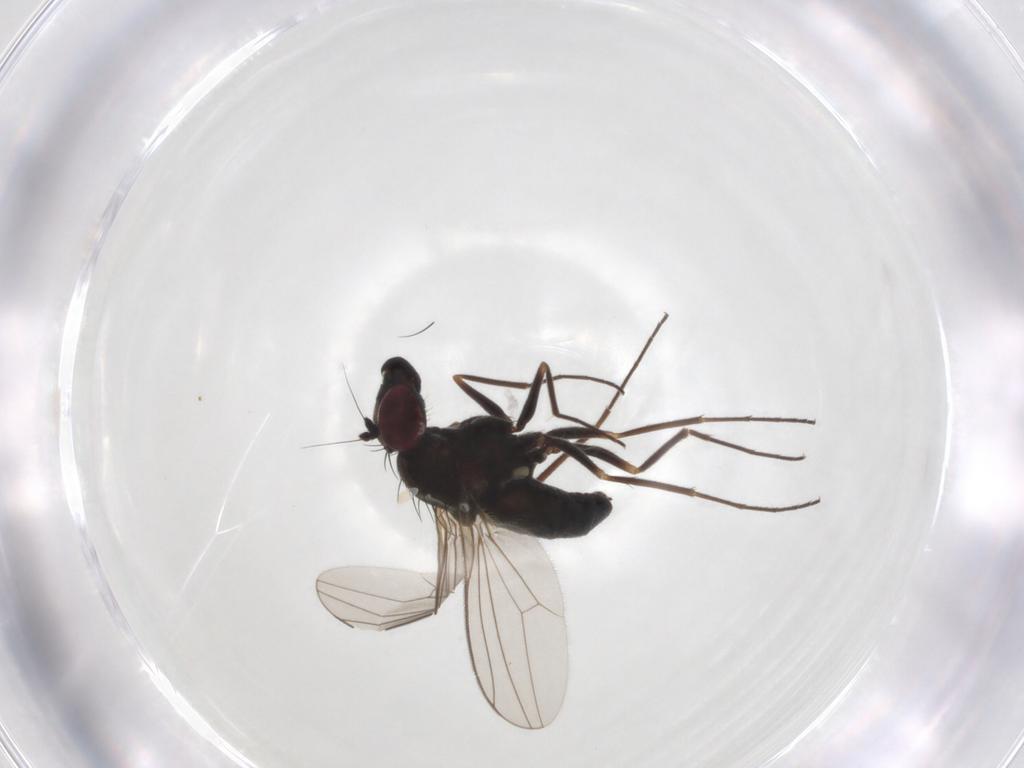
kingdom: Animalia
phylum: Arthropoda
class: Insecta
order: Diptera
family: Dolichopodidae
